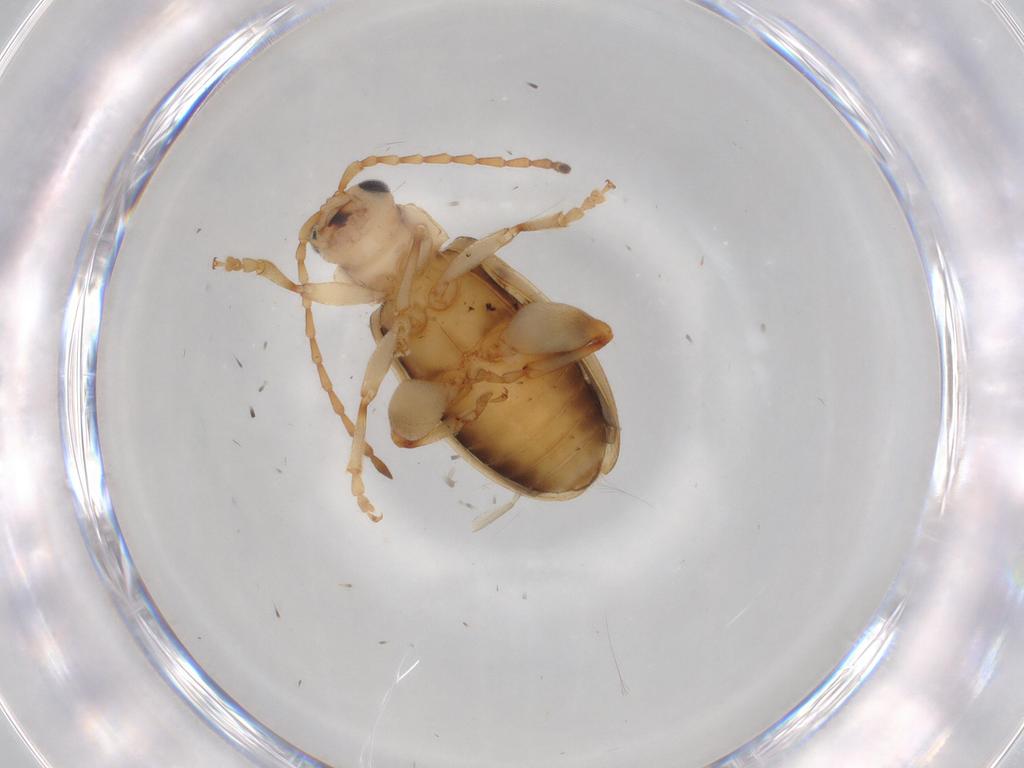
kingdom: Animalia
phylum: Arthropoda
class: Insecta
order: Coleoptera
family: Chrysomelidae
